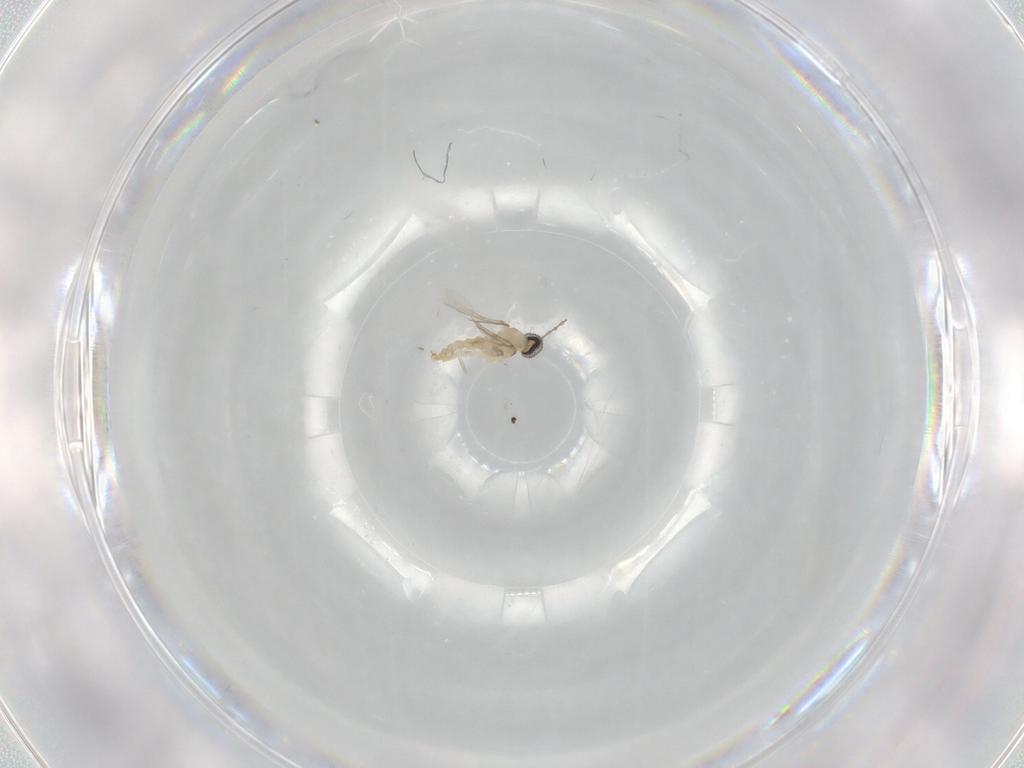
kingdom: Animalia
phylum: Arthropoda
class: Insecta
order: Diptera
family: Cecidomyiidae
